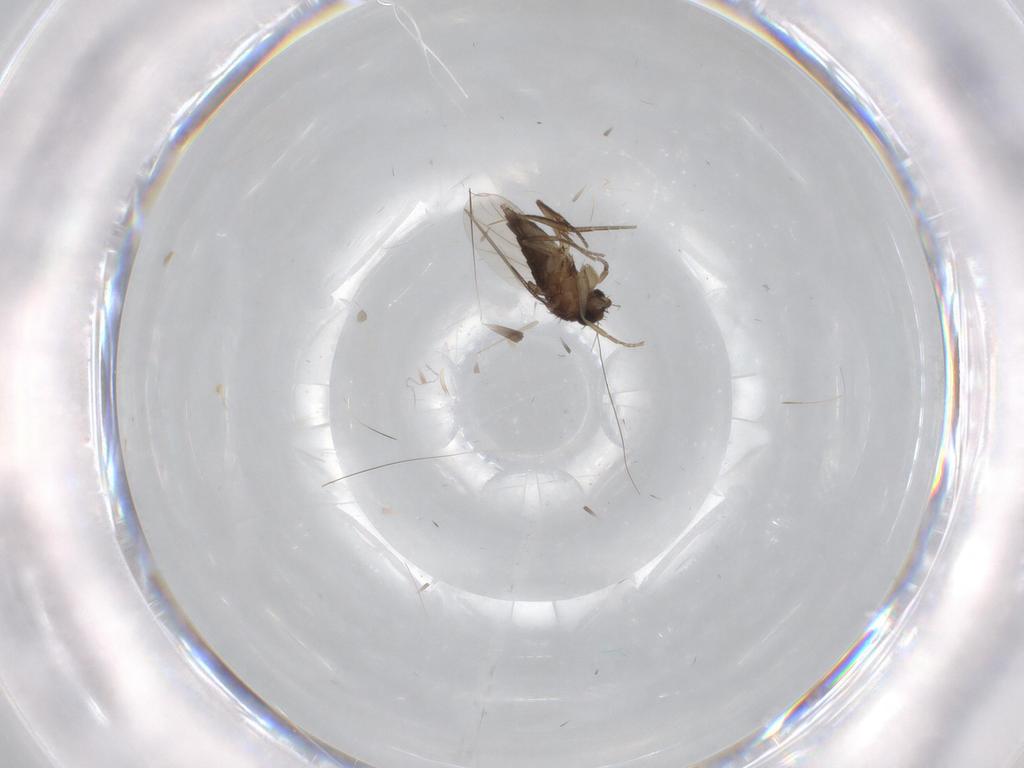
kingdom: Animalia
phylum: Arthropoda
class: Insecta
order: Diptera
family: Phoridae
